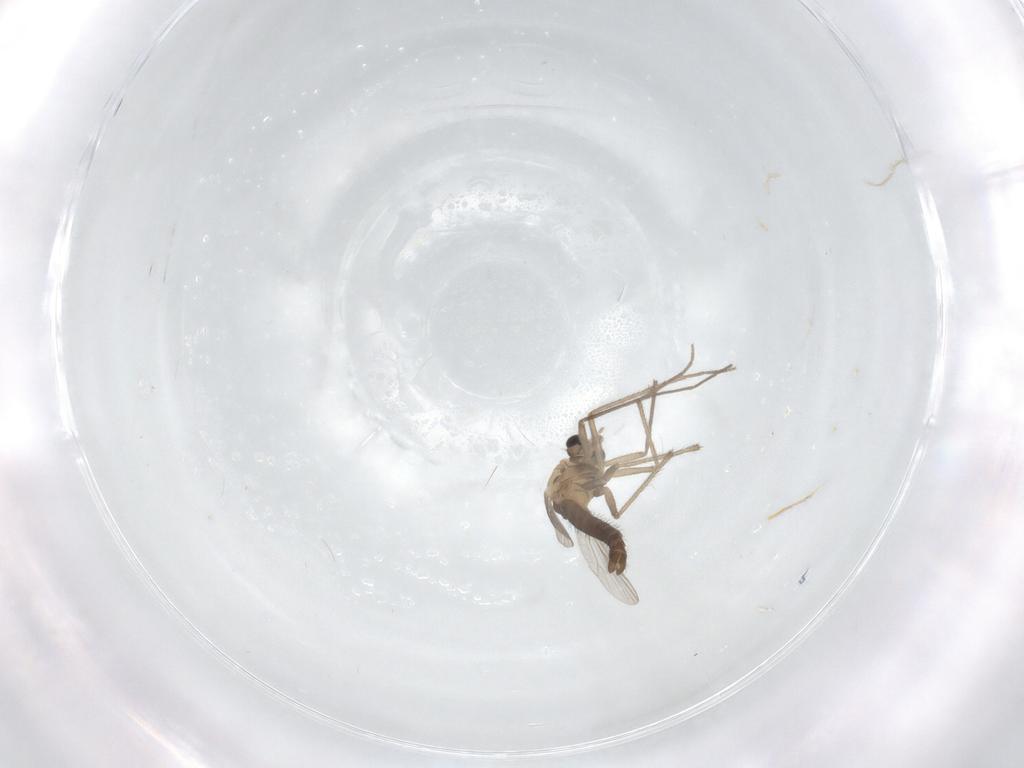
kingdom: Animalia
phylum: Arthropoda
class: Insecta
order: Diptera
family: Chironomidae
